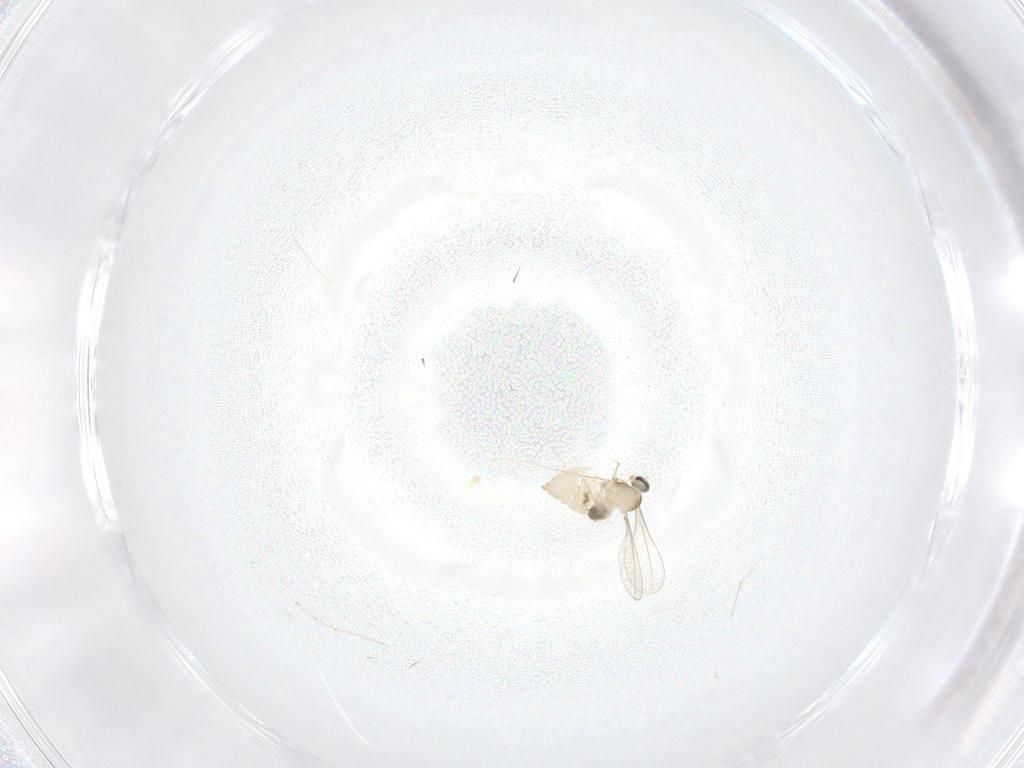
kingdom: Animalia
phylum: Arthropoda
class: Insecta
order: Diptera
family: Cecidomyiidae
